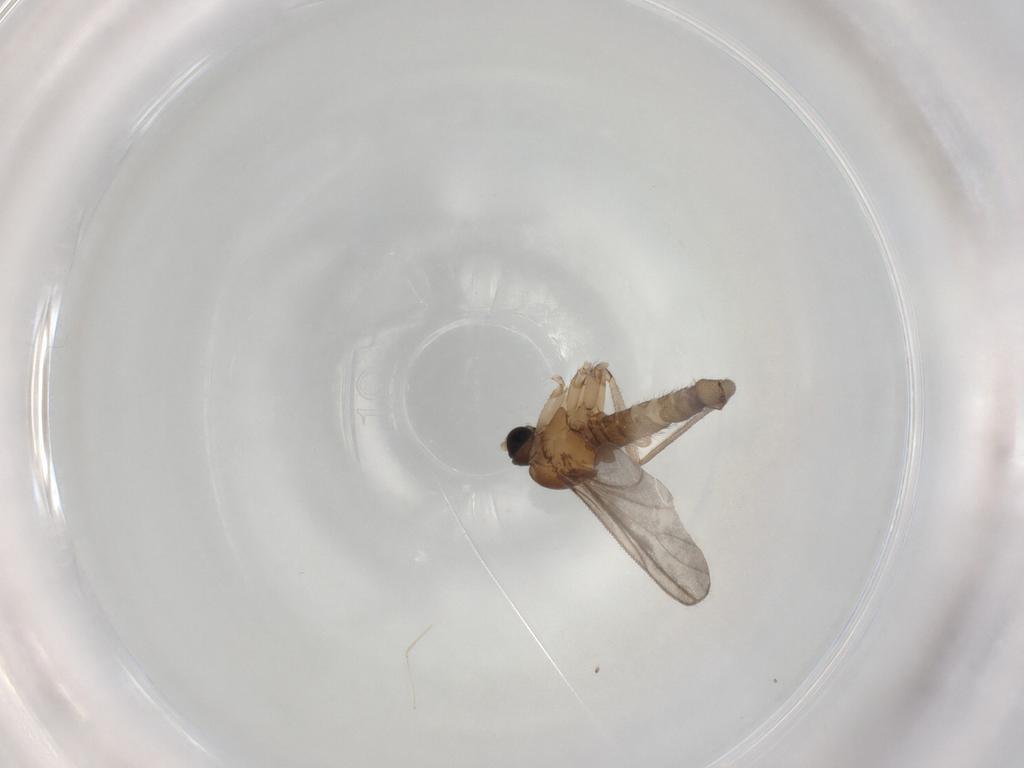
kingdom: Animalia
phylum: Arthropoda
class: Insecta
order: Diptera
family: Sciaridae
